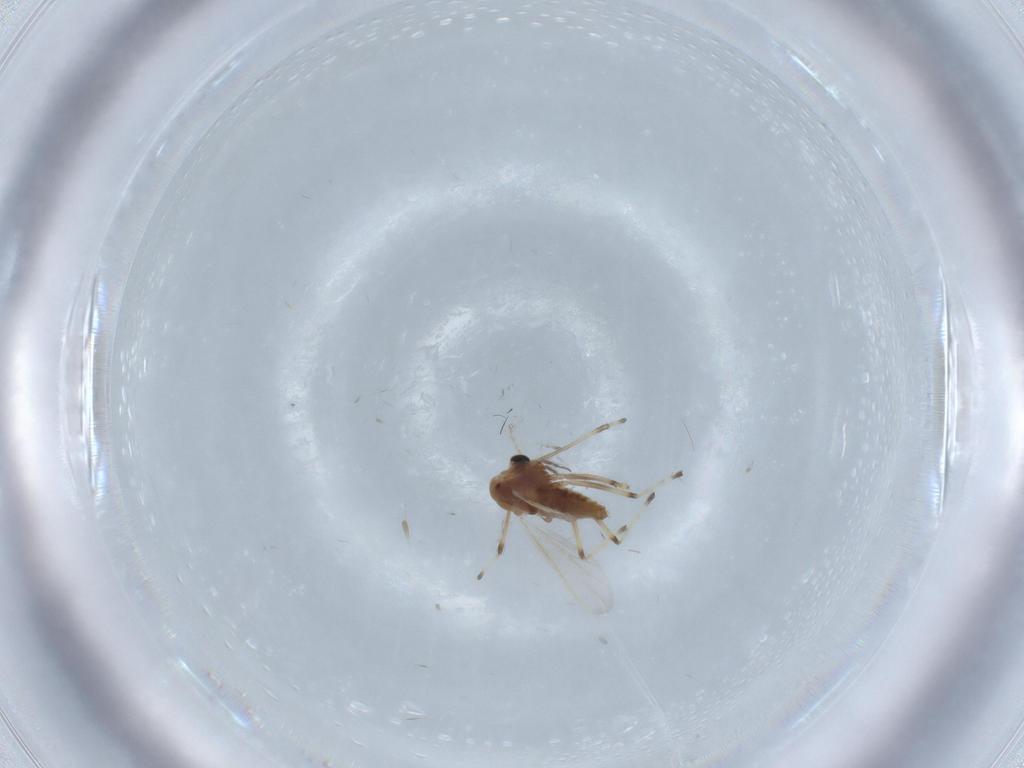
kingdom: Animalia
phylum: Arthropoda
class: Insecta
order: Diptera
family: Chironomidae
